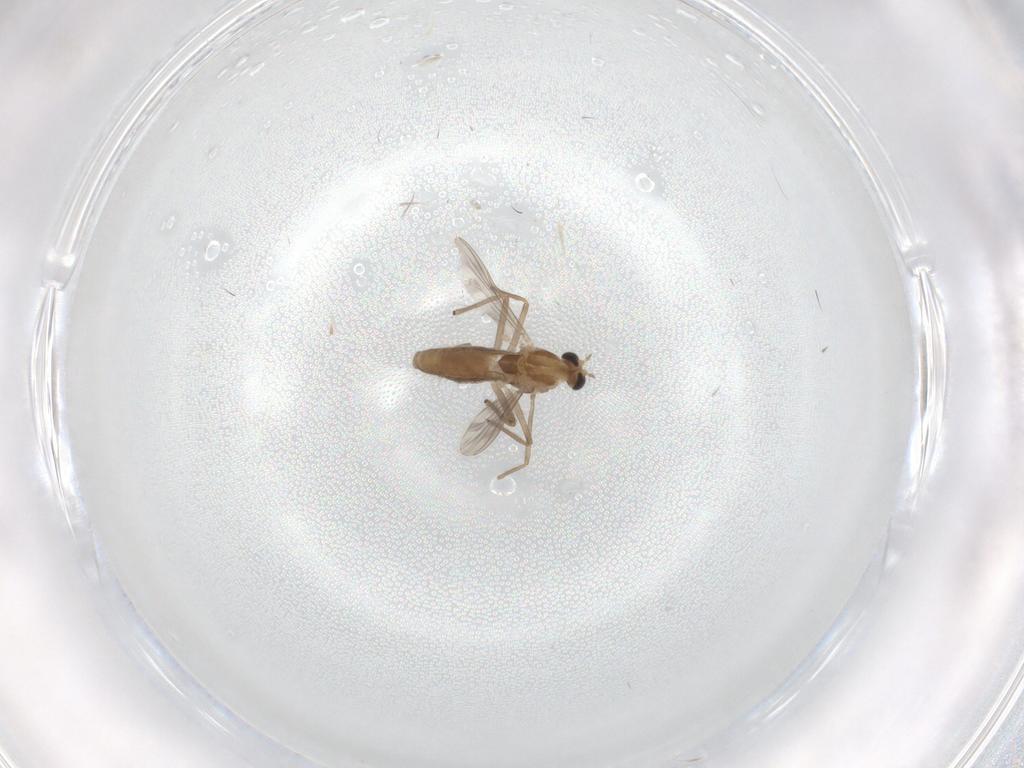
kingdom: Animalia
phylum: Arthropoda
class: Insecta
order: Diptera
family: Chironomidae
